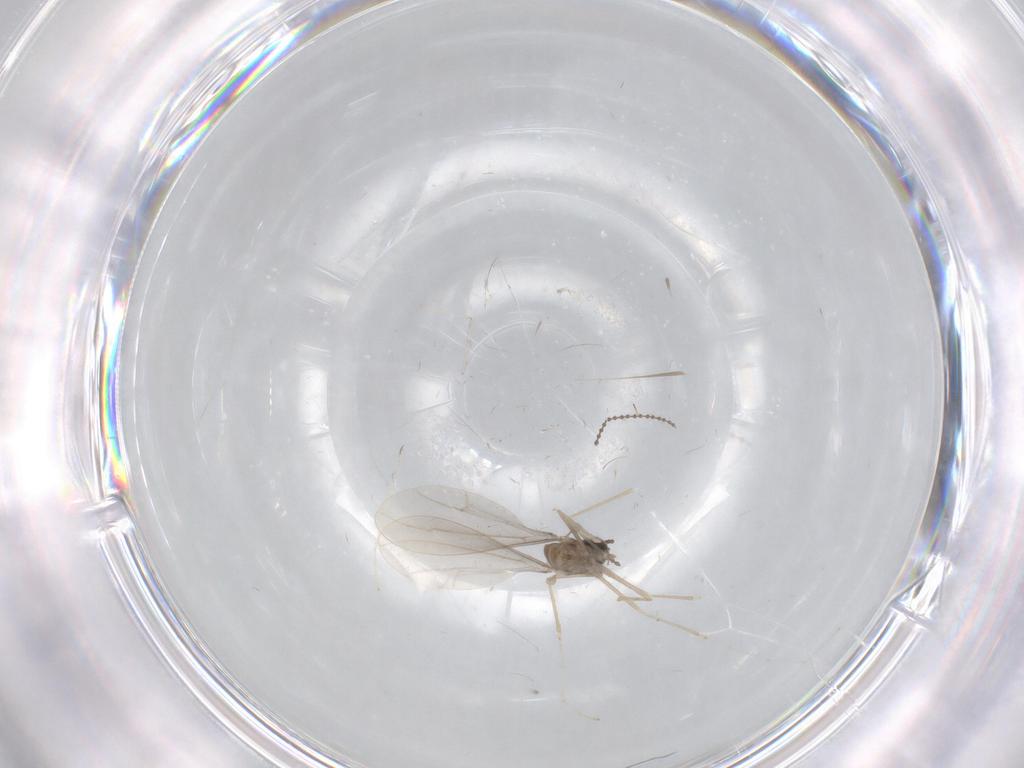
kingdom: Animalia
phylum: Arthropoda
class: Insecta
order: Diptera
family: Cecidomyiidae
